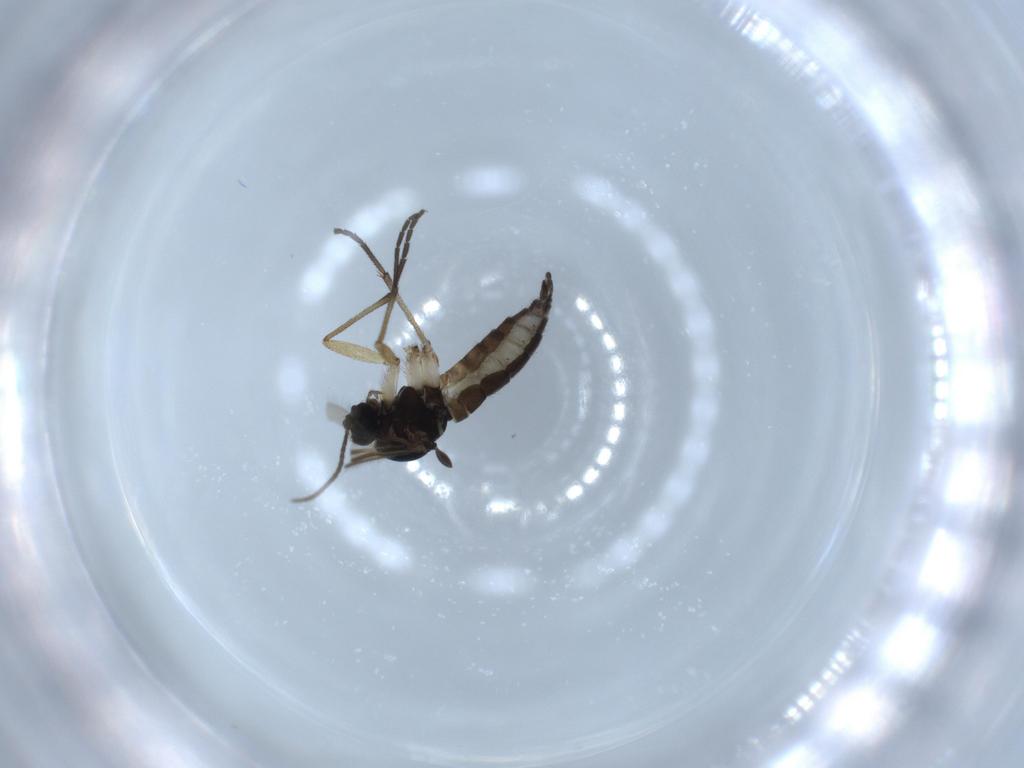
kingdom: Animalia
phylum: Arthropoda
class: Insecta
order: Diptera
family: Sciaridae
